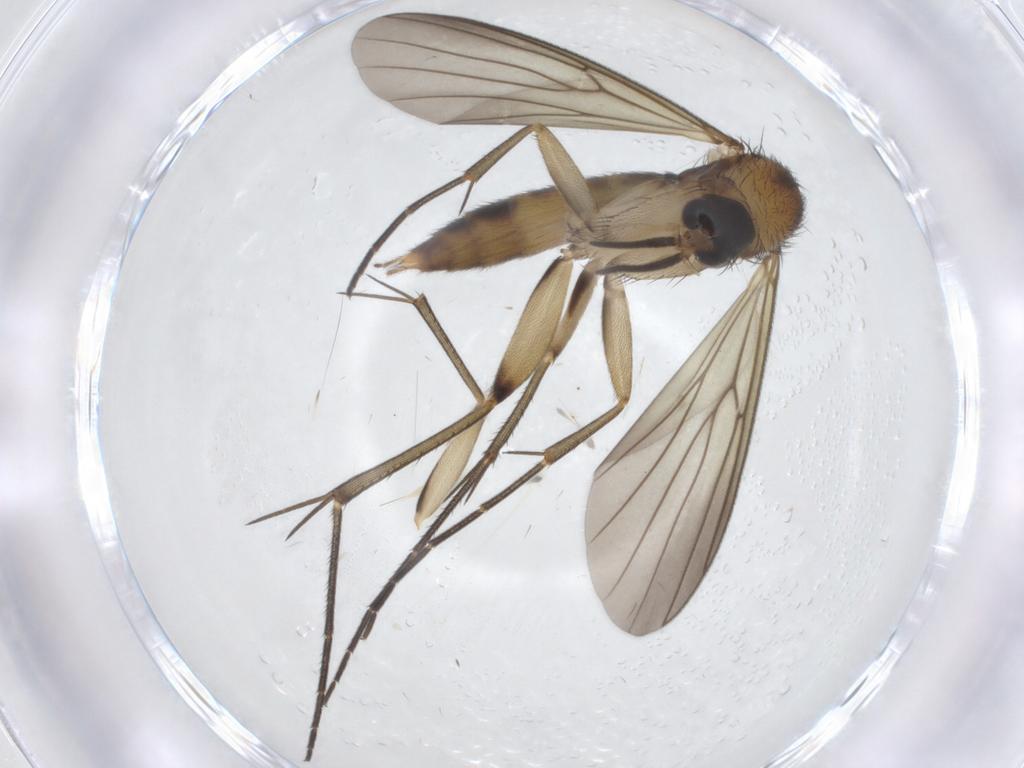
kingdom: Animalia
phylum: Arthropoda
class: Insecta
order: Diptera
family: Mycetophilidae
